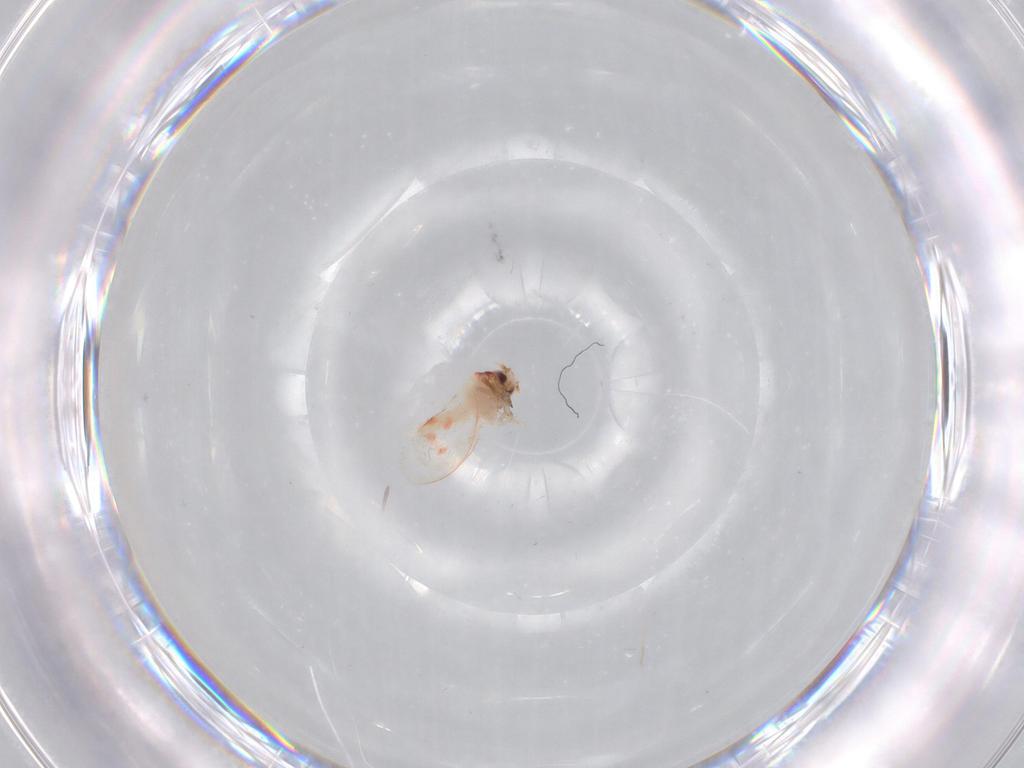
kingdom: Animalia
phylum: Arthropoda
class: Insecta
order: Hemiptera
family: Aleyrodidae
